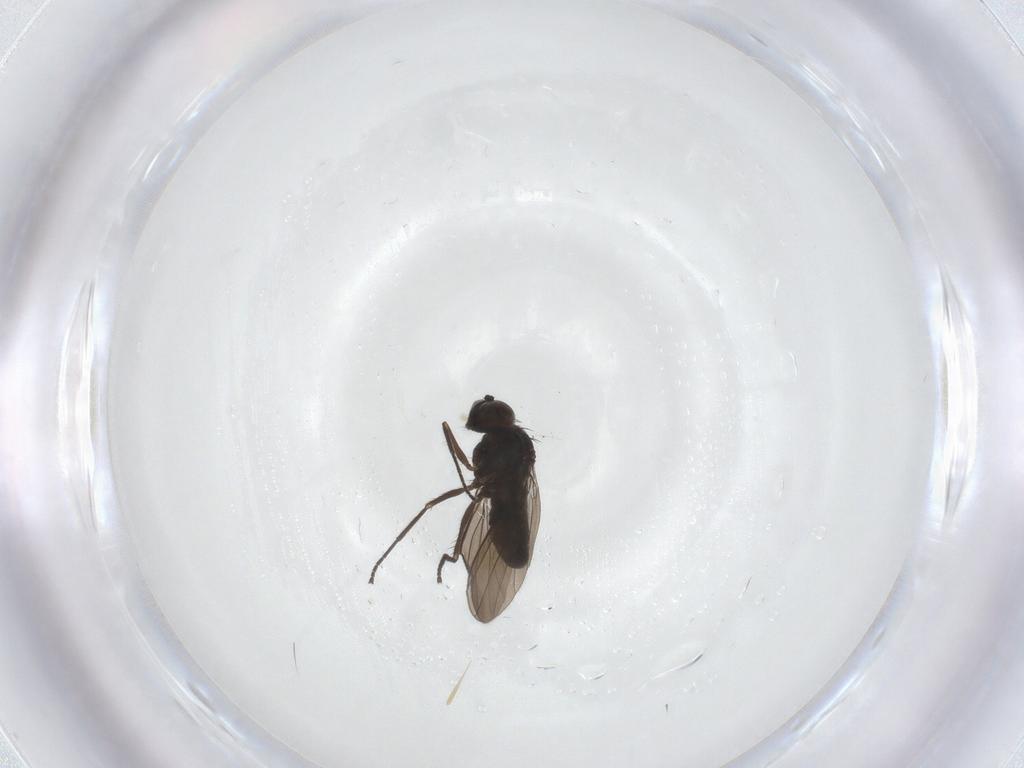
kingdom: Animalia
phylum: Arthropoda
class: Insecta
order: Diptera
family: Dolichopodidae
